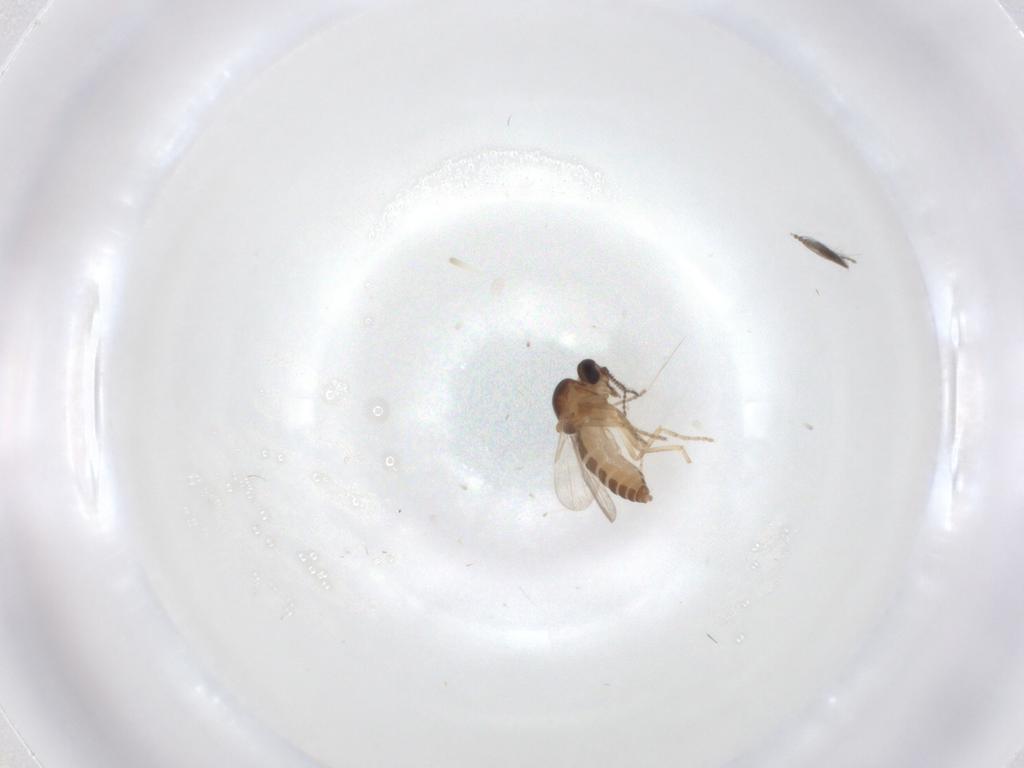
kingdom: Animalia
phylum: Arthropoda
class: Insecta
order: Diptera
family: Ceratopogonidae
